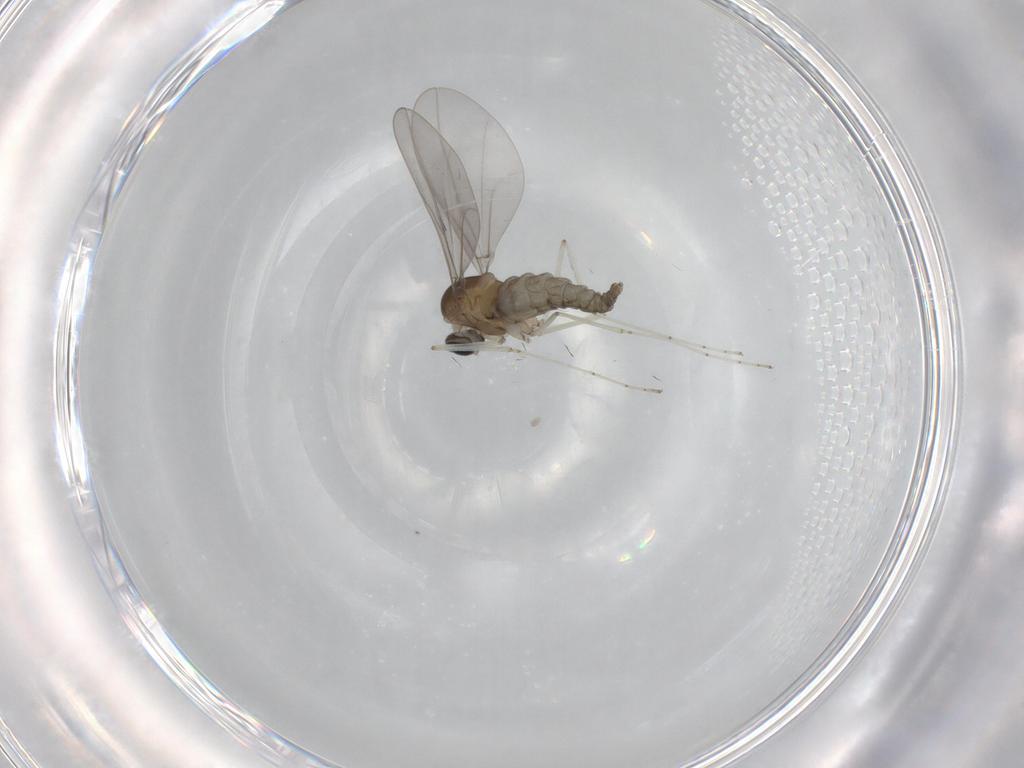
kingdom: Animalia
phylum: Arthropoda
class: Insecta
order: Diptera
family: Cecidomyiidae
